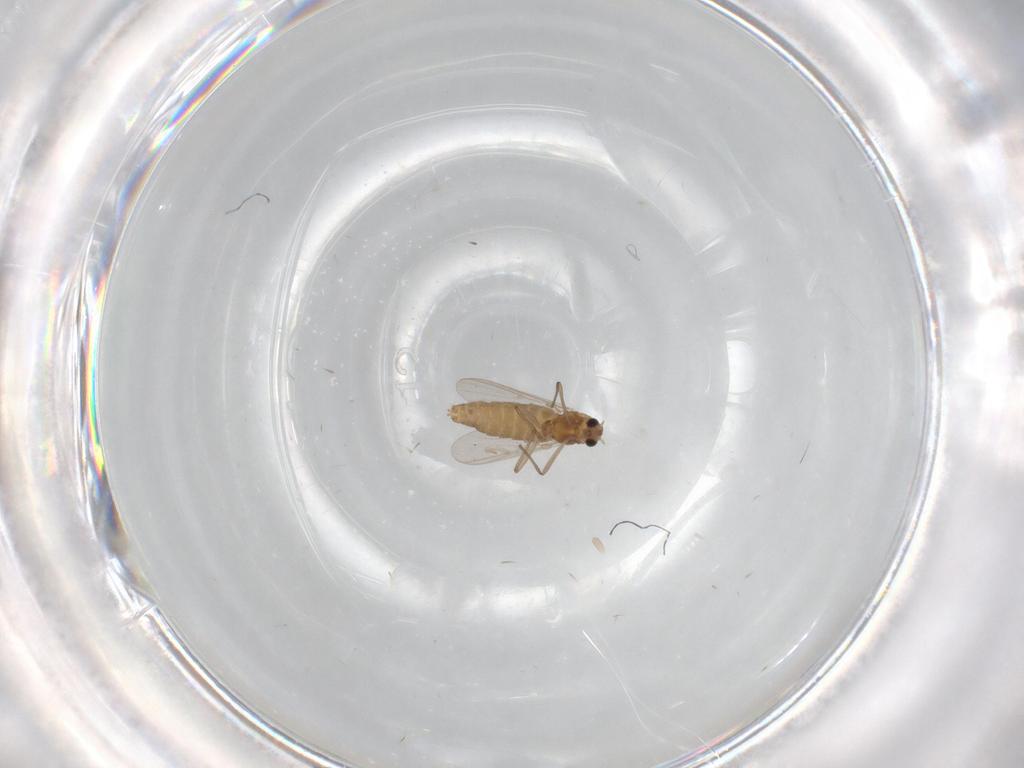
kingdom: Animalia
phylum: Arthropoda
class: Insecta
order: Diptera
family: Chironomidae
